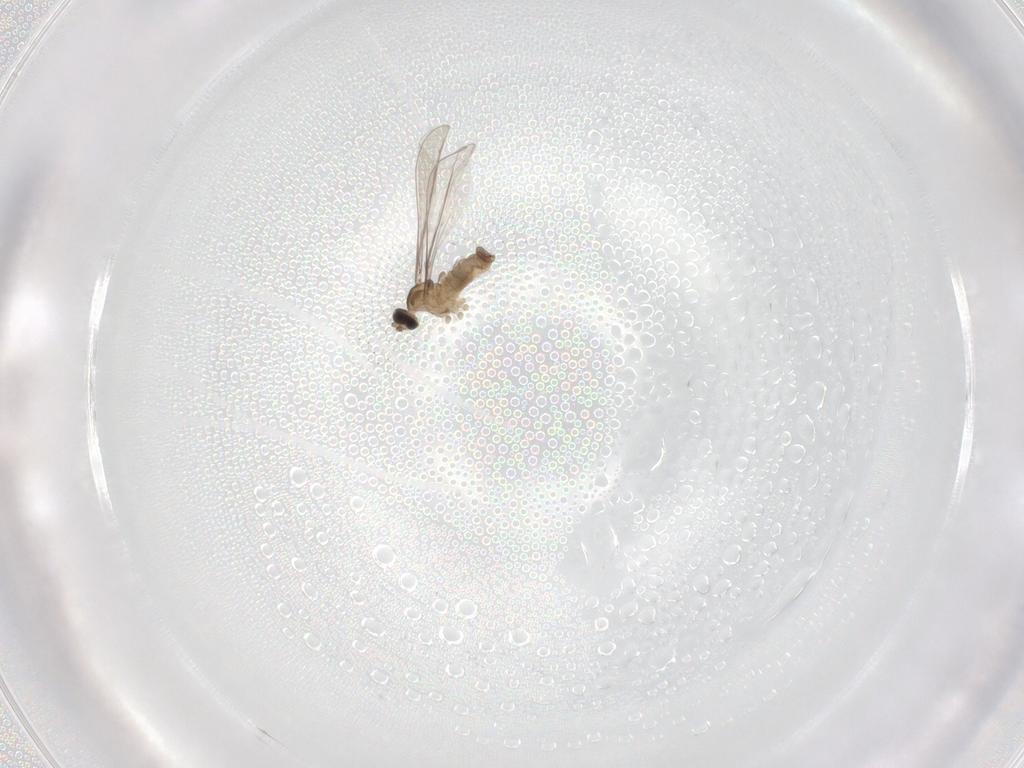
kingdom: Animalia
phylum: Arthropoda
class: Insecta
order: Diptera
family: Cecidomyiidae
